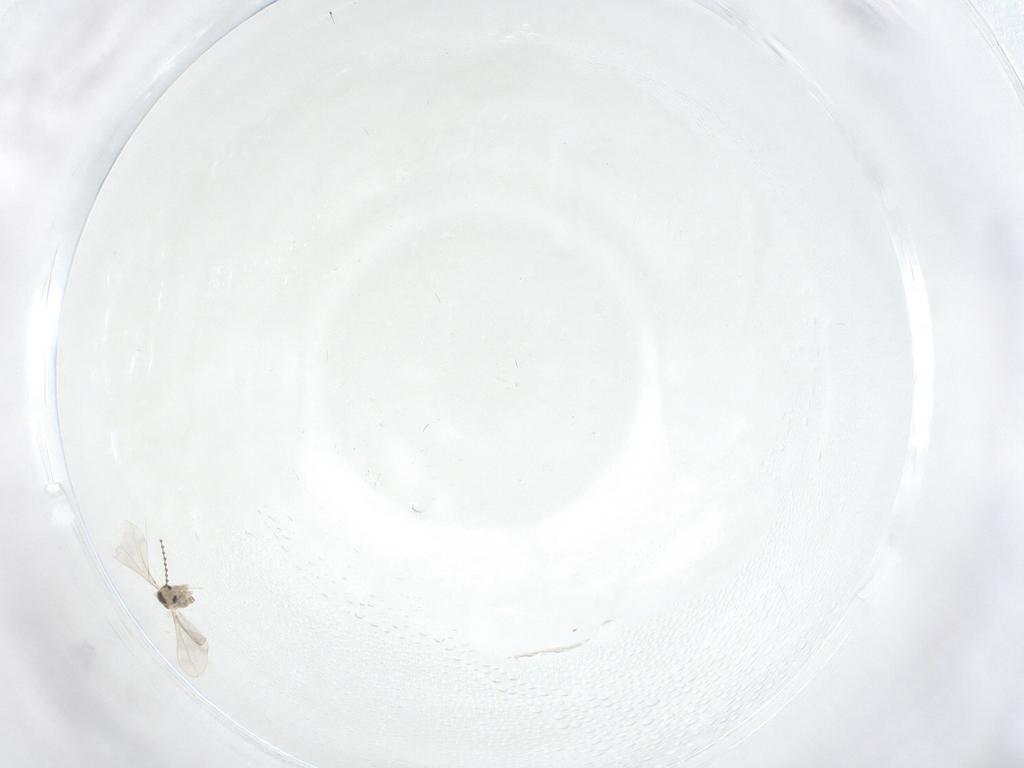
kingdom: Animalia
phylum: Arthropoda
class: Insecta
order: Diptera
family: Cecidomyiidae
